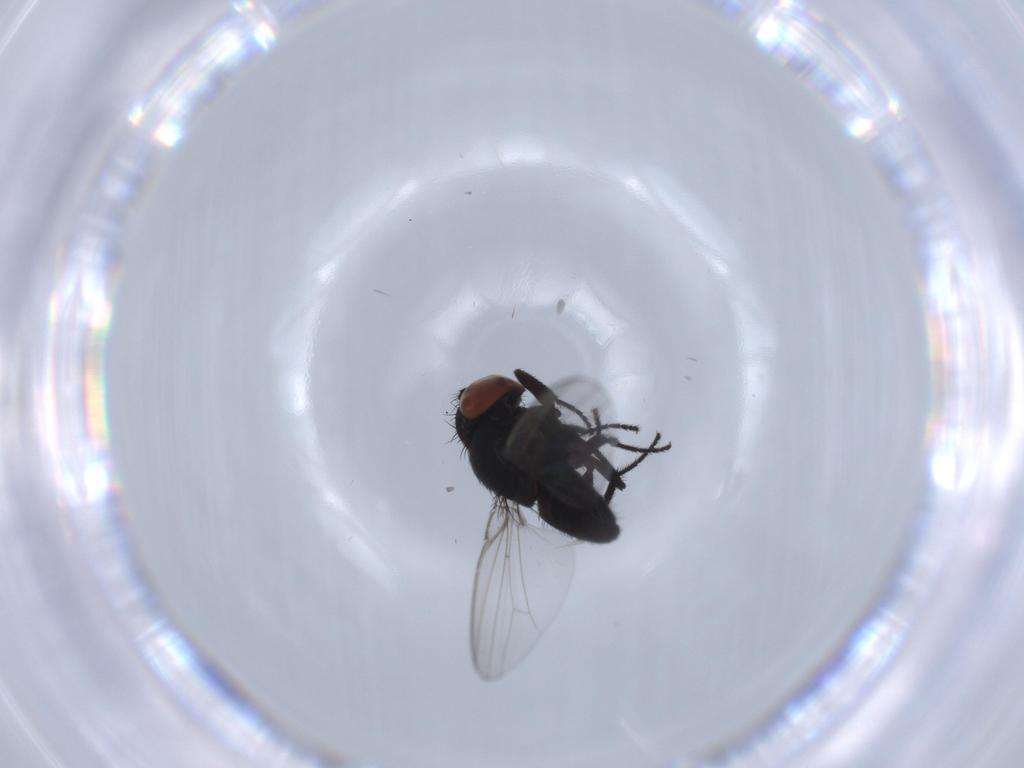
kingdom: Animalia
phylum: Arthropoda
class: Insecta
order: Diptera
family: Milichiidae
